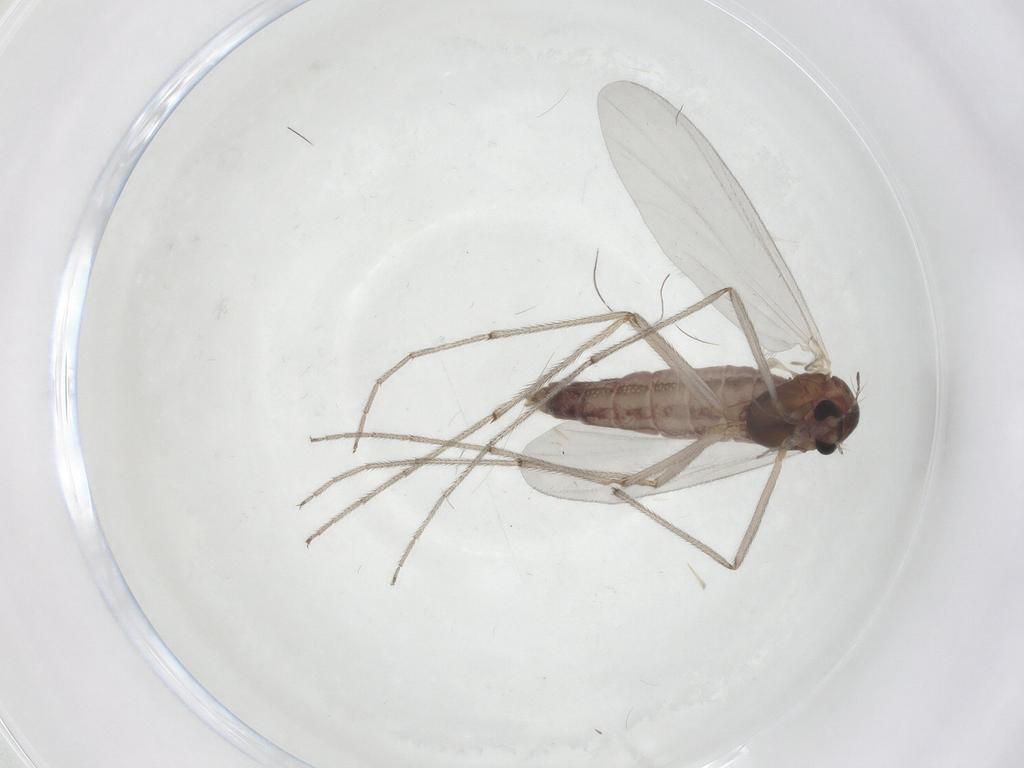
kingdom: Animalia
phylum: Arthropoda
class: Insecta
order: Diptera
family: Chironomidae
